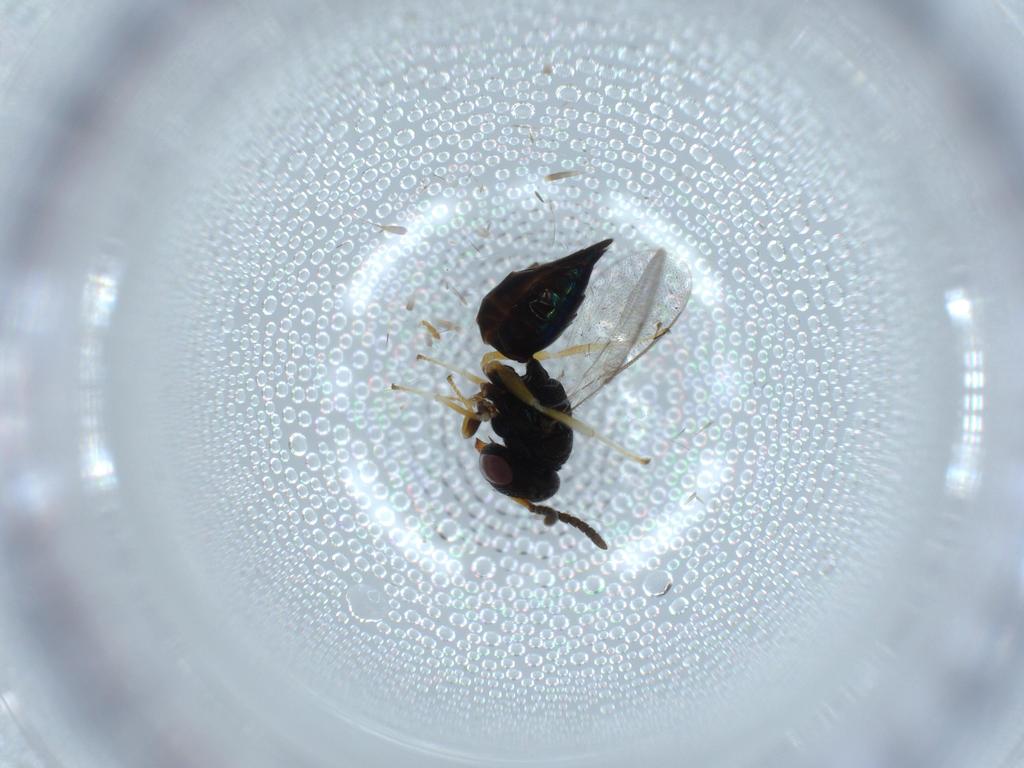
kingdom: Animalia
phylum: Arthropoda
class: Insecta
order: Hymenoptera
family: Pteromalidae
